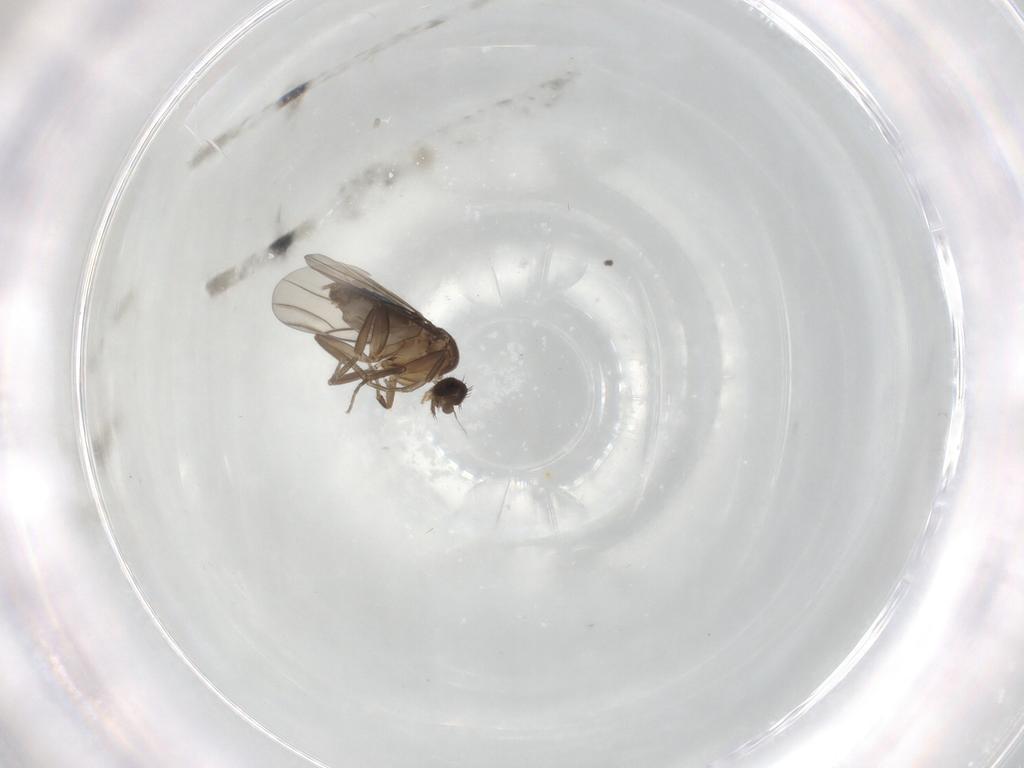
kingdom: Animalia
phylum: Arthropoda
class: Insecta
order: Diptera
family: Phoridae
